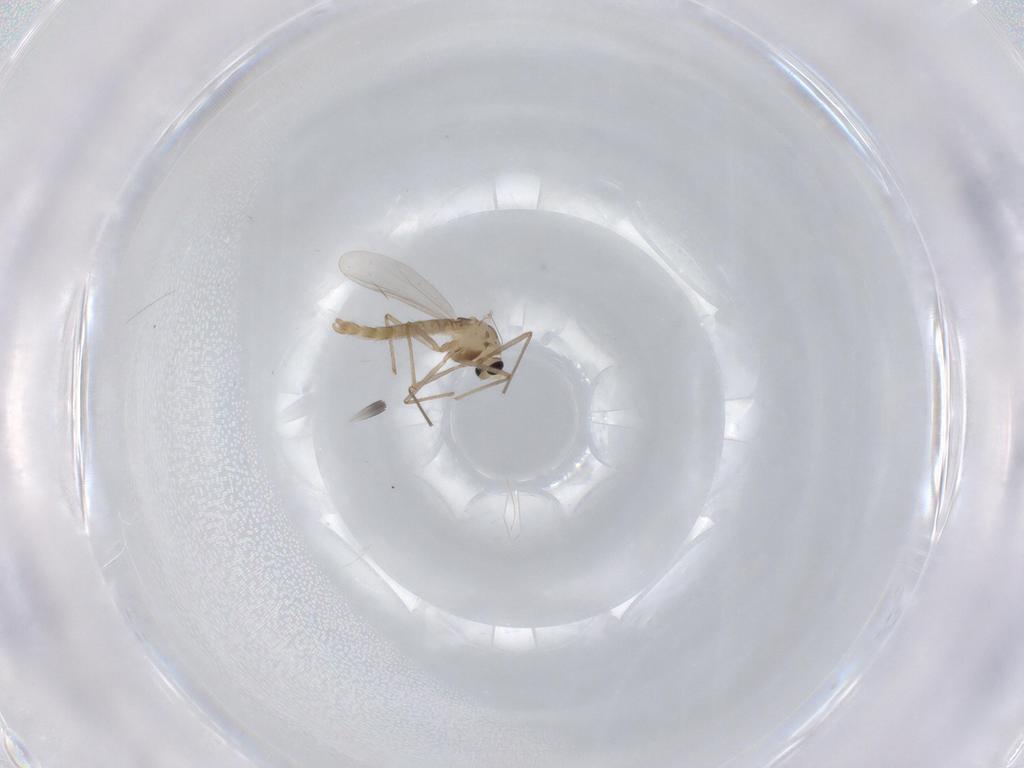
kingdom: Animalia
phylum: Arthropoda
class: Insecta
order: Diptera
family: Chironomidae
